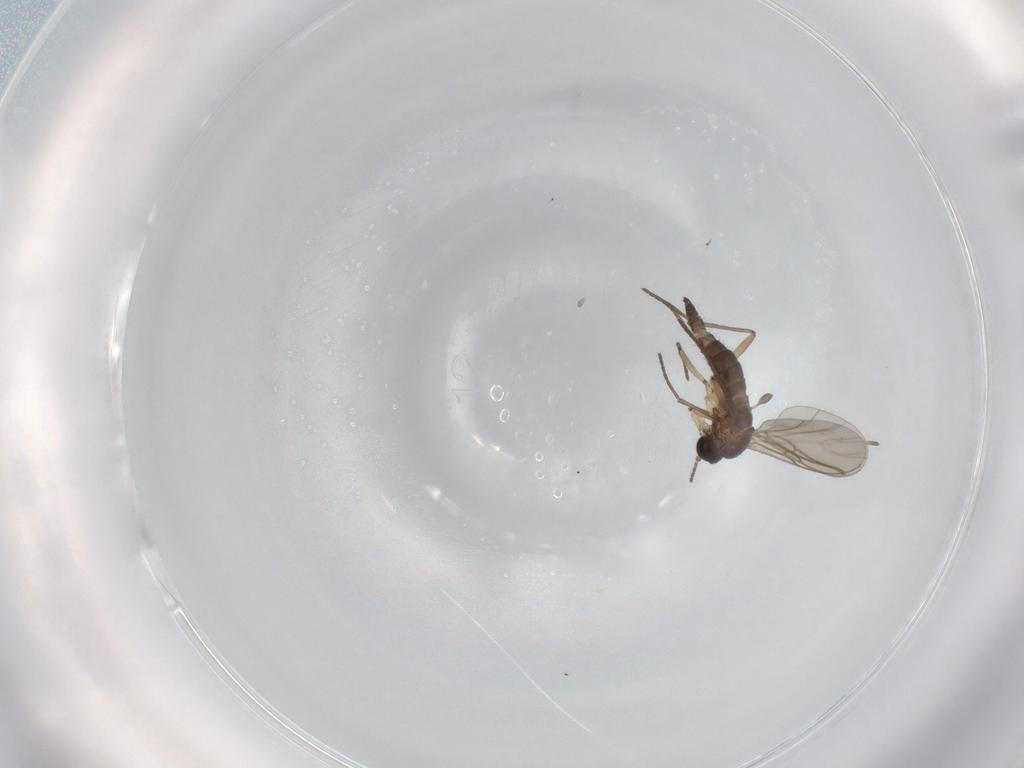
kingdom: Animalia
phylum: Arthropoda
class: Insecta
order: Diptera
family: Sciaridae
